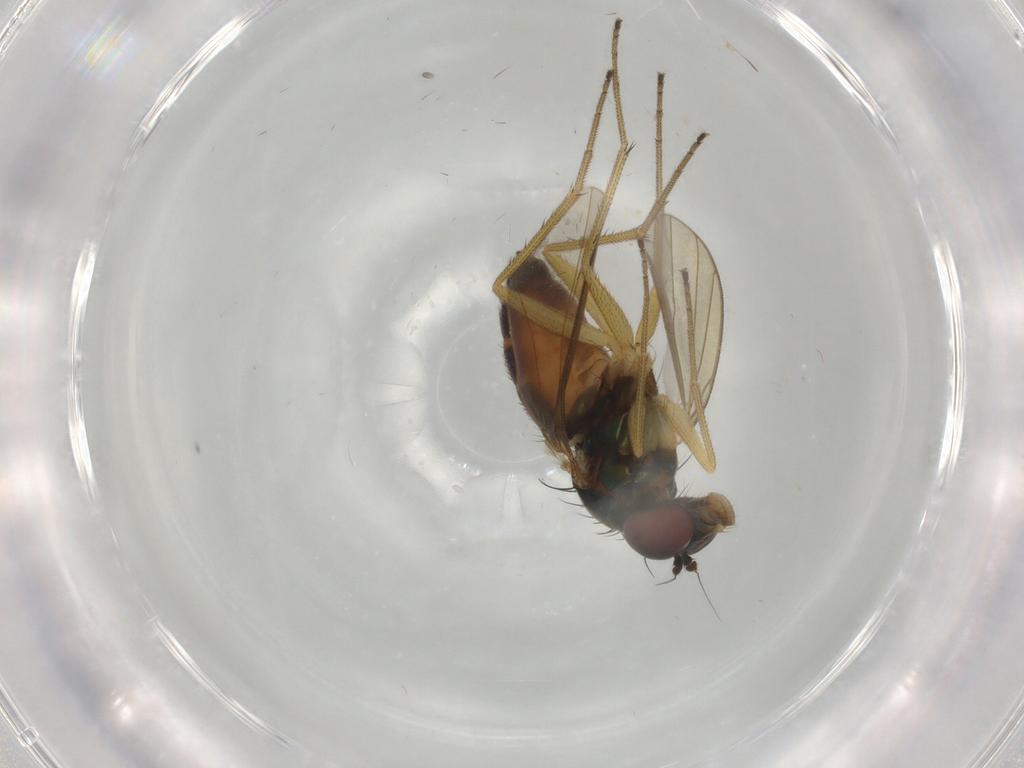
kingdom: Animalia
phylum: Arthropoda
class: Insecta
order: Diptera
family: Dolichopodidae
